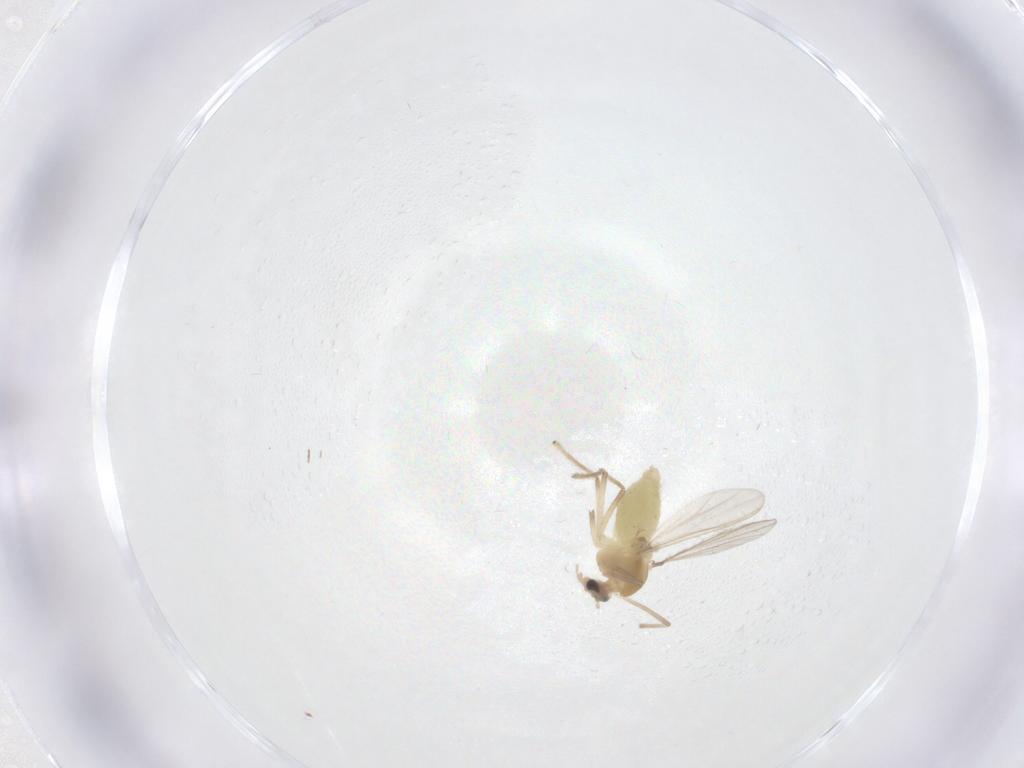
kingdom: Animalia
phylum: Arthropoda
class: Insecta
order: Diptera
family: Chironomidae
